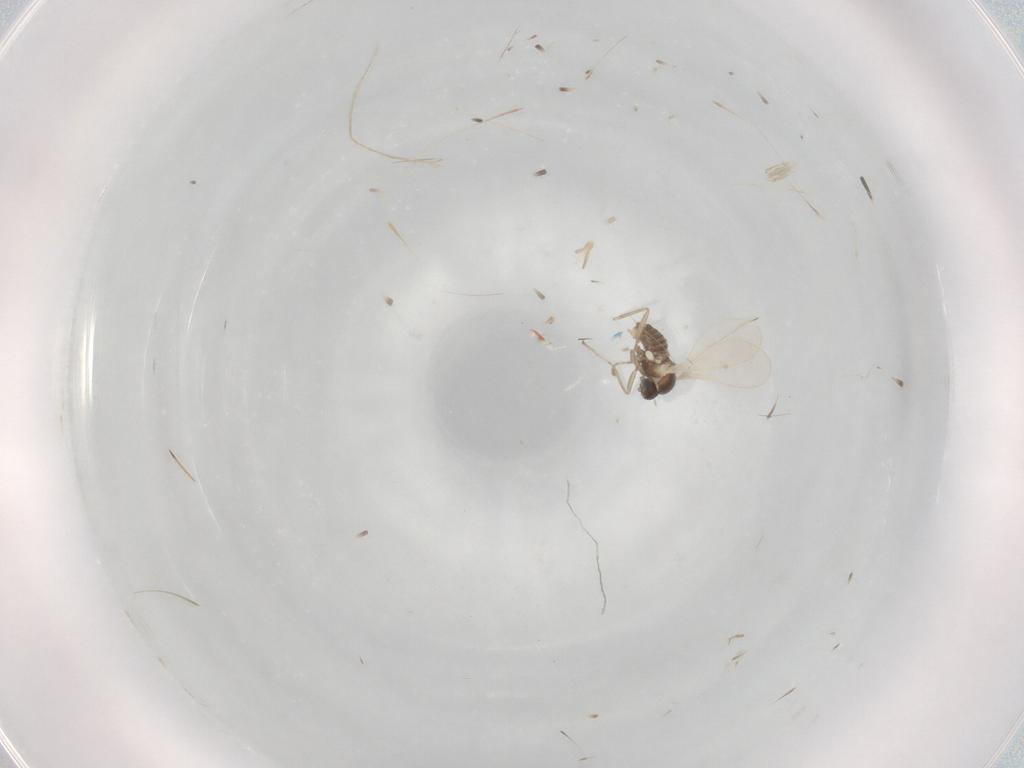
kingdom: Animalia
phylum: Arthropoda
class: Insecta
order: Diptera
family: Cecidomyiidae
